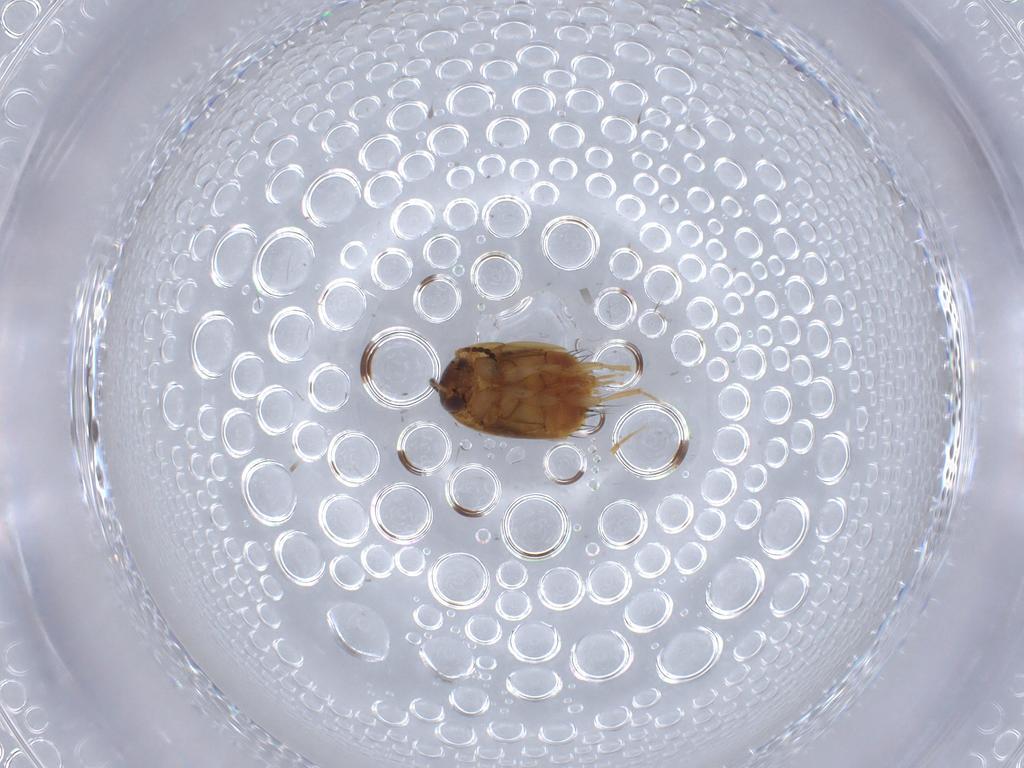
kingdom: Animalia
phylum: Arthropoda
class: Insecta
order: Coleoptera
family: Staphylinidae
